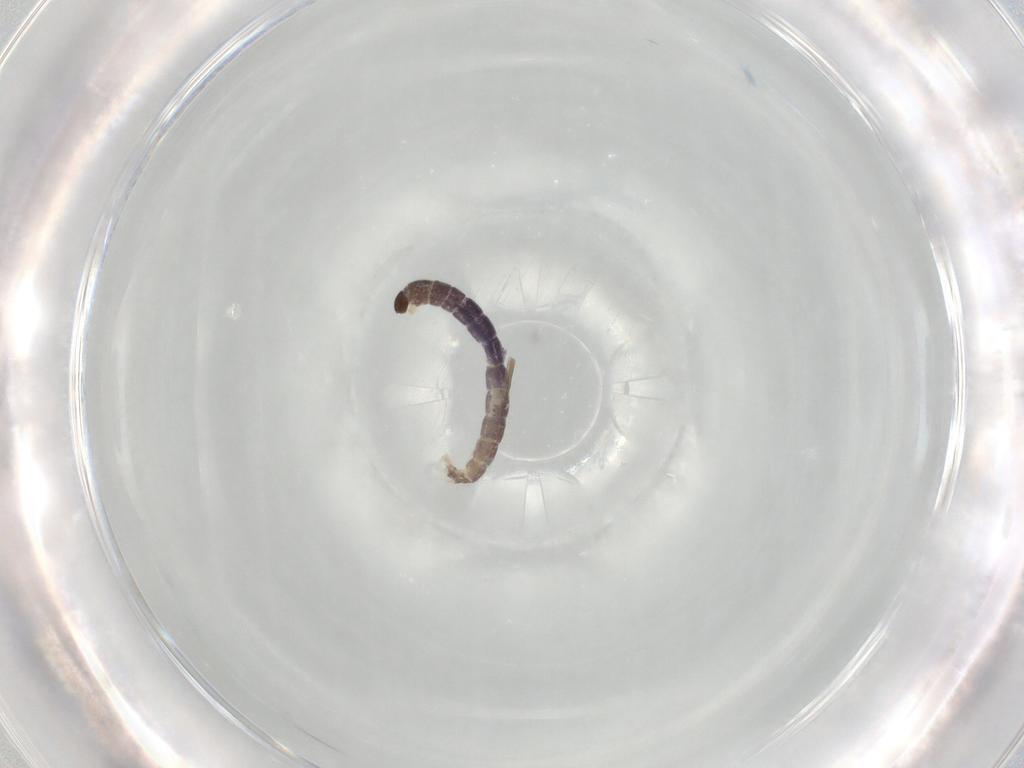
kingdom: Animalia
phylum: Arthropoda
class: Insecta
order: Diptera
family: Chironomidae
